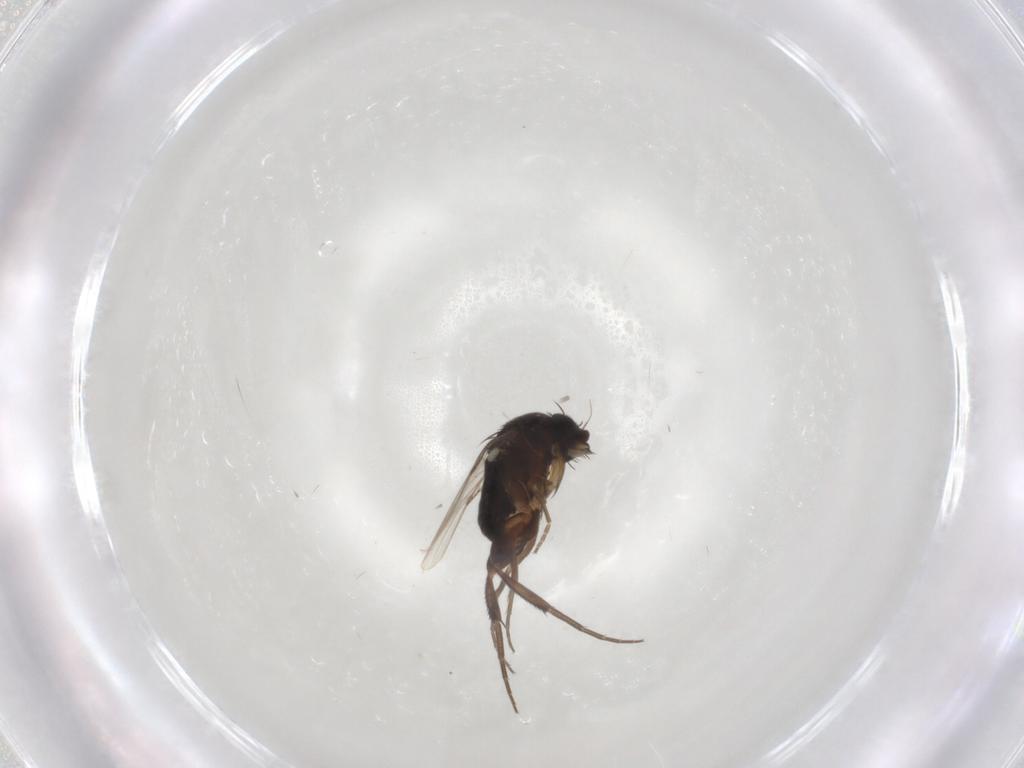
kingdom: Animalia
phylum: Arthropoda
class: Insecta
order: Diptera
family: Phoridae
